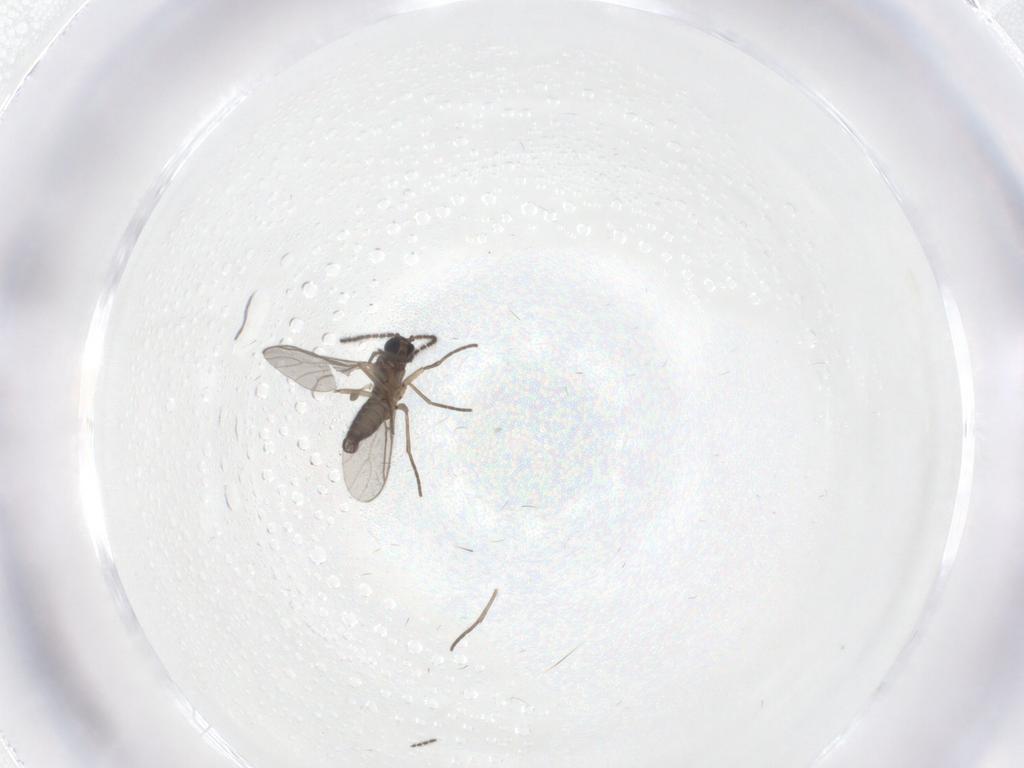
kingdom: Animalia
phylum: Arthropoda
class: Insecta
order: Diptera
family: Sciaridae
